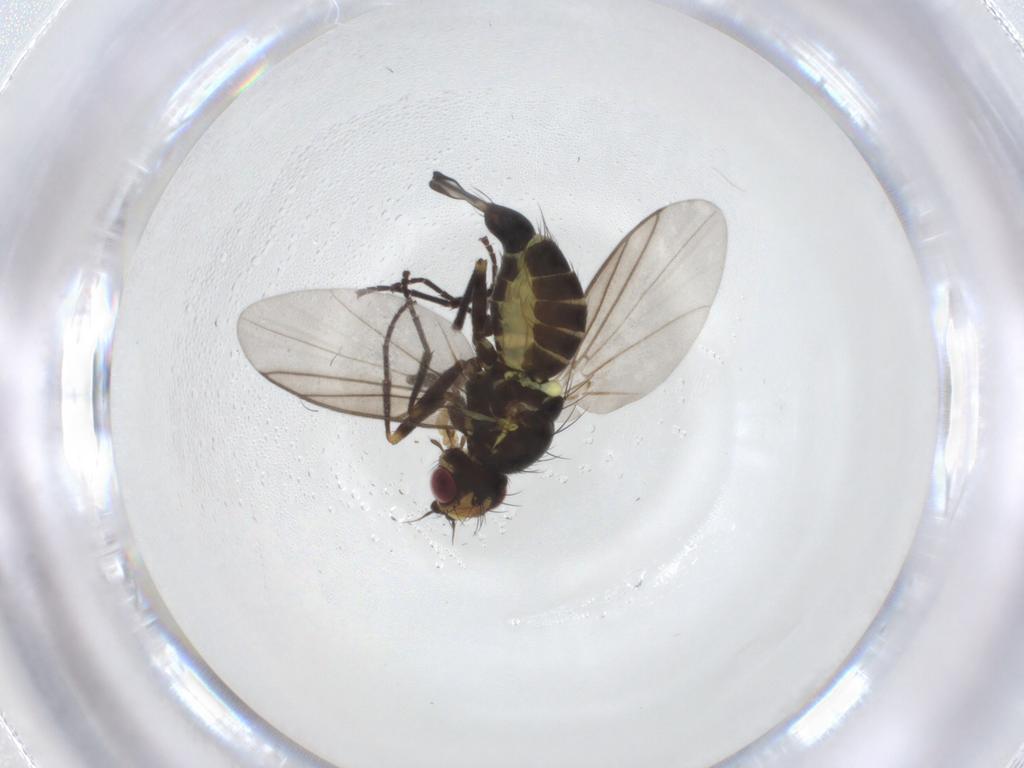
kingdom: Animalia
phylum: Arthropoda
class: Insecta
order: Diptera
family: Agromyzidae
